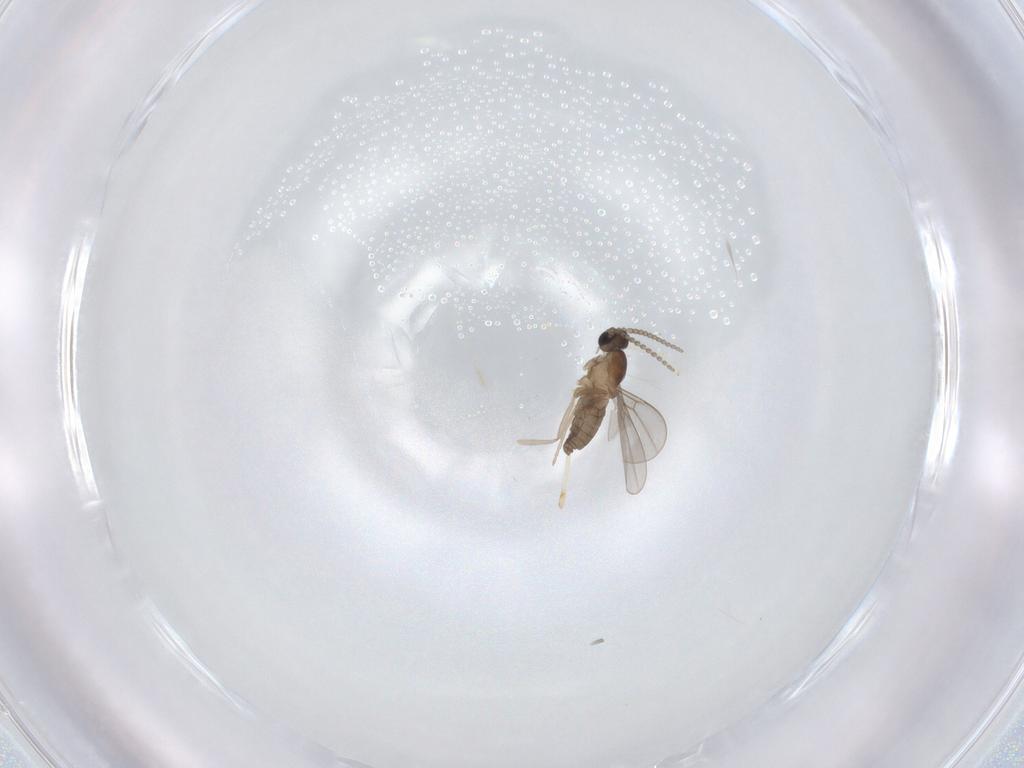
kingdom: Animalia
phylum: Arthropoda
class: Insecta
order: Diptera
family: Cecidomyiidae
